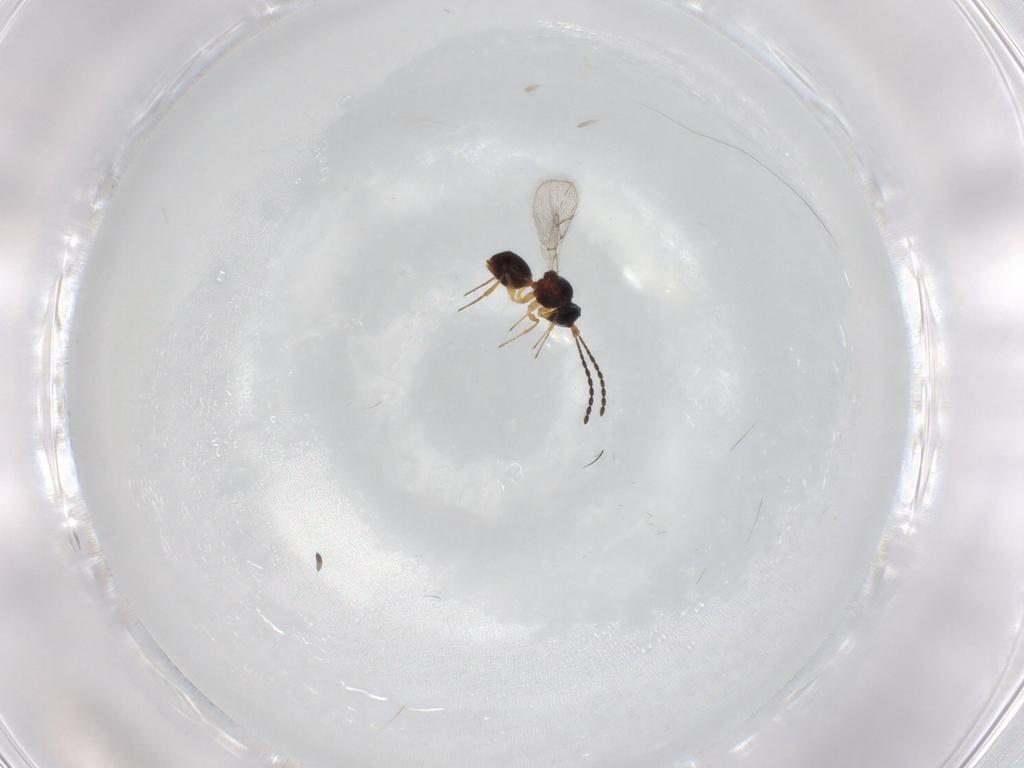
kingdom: Animalia
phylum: Arthropoda
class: Insecta
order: Hymenoptera
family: Figitidae
